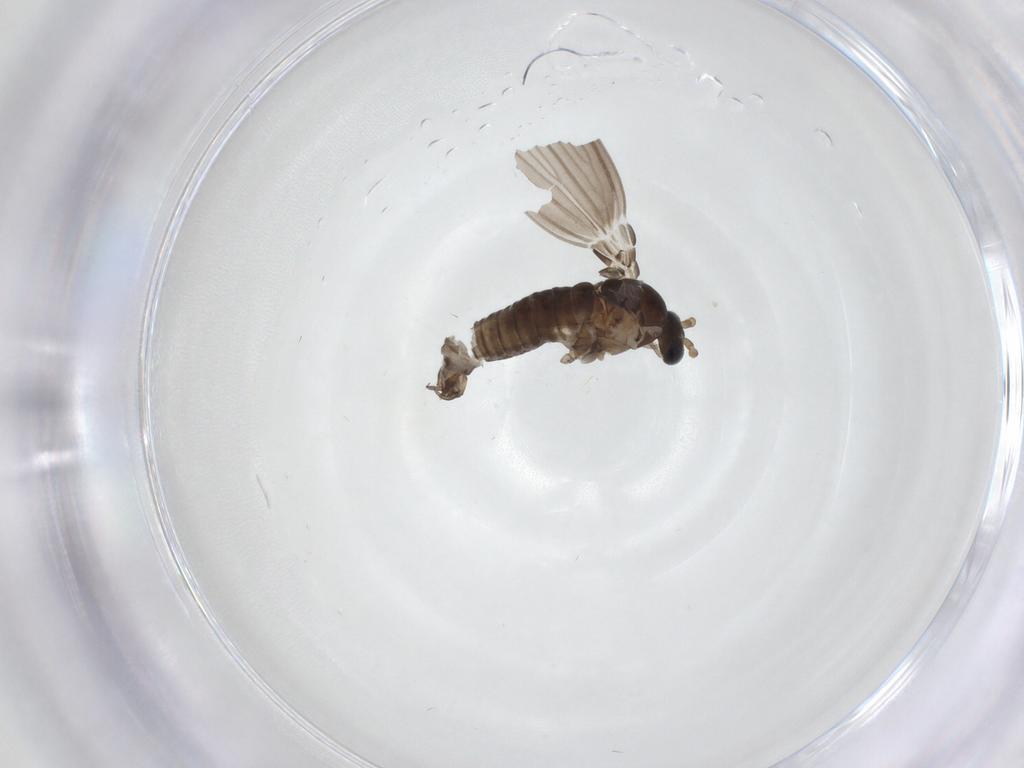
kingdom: Animalia
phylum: Arthropoda
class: Insecta
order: Diptera
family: Psychodidae
